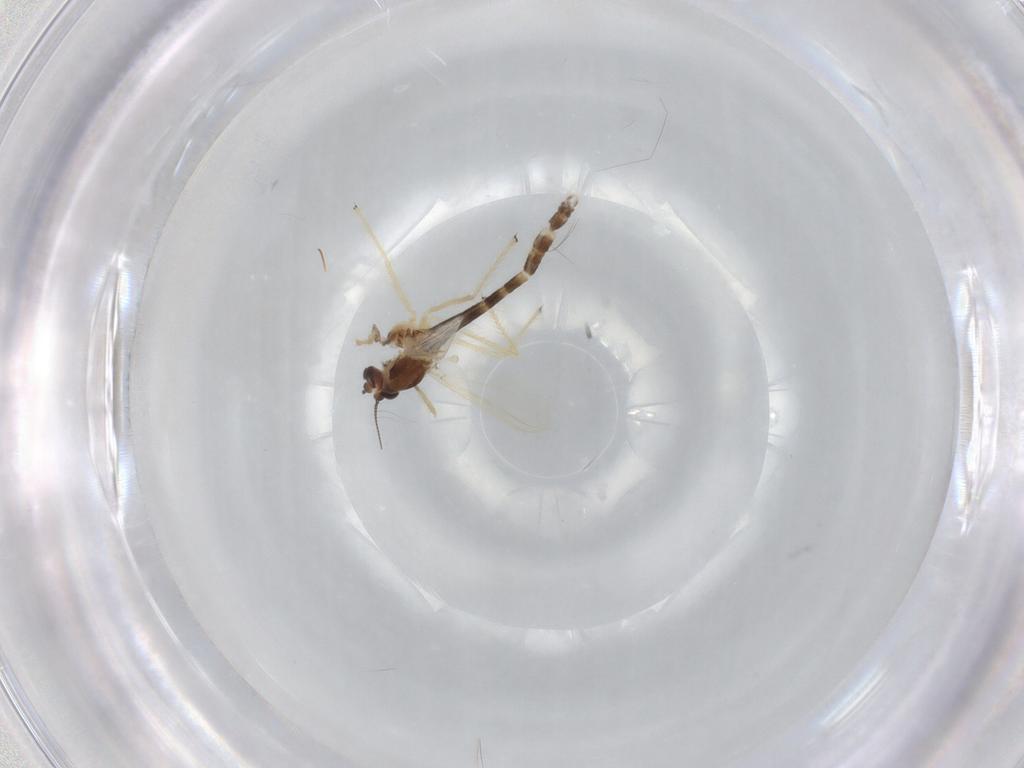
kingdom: Animalia
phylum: Arthropoda
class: Insecta
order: Diptera
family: Chironomidae
